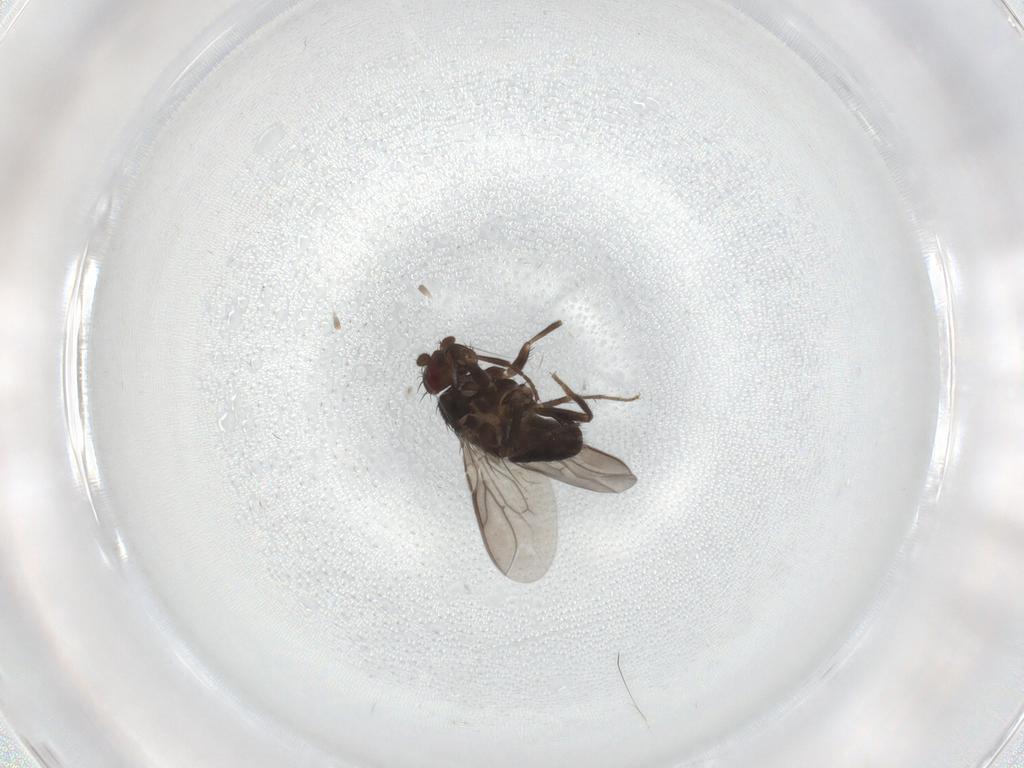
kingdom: Animalia
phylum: Arthropoda
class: Insecta
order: Diptera
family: Sphaeroceridae
